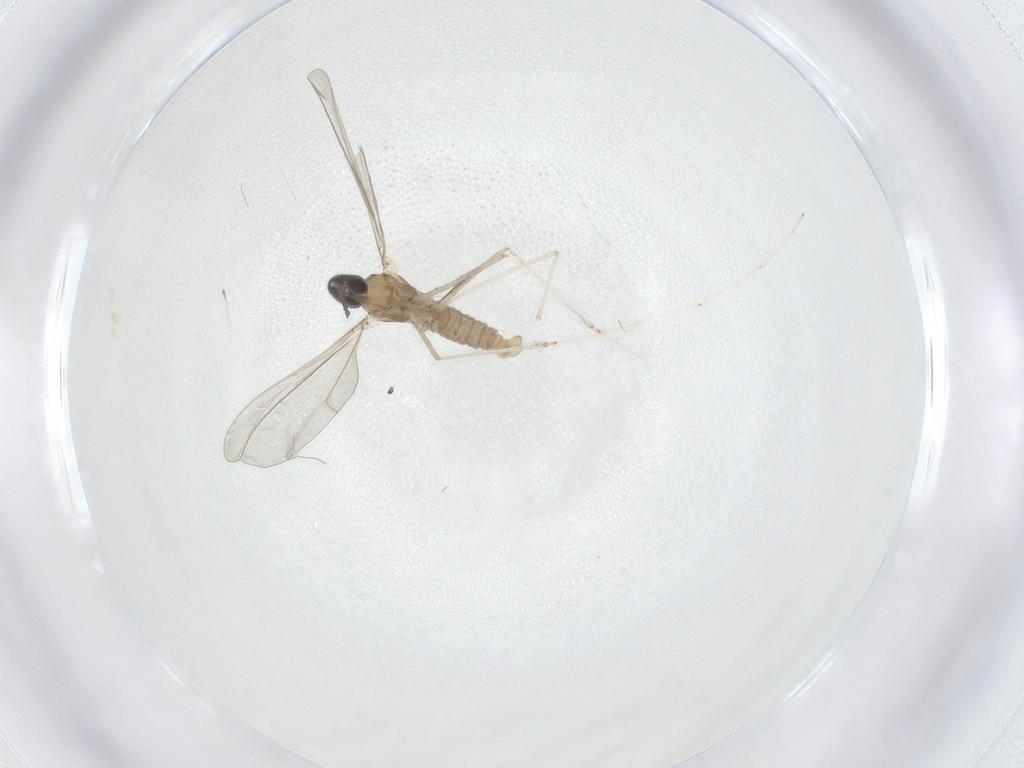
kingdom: Animalia
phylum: Arthropoda
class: Insecta
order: Diptera
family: Cecidomyiidae
